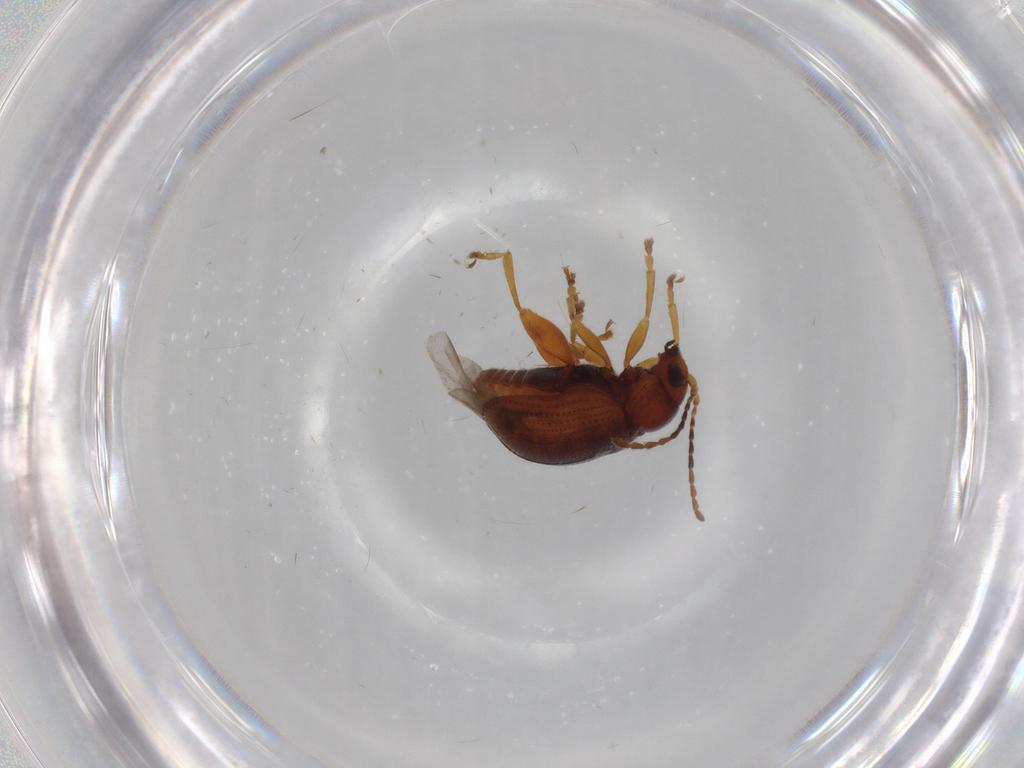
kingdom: Animalia
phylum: Arthropoda
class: Insecta
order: Coleoptera
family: Chrysomelidae
